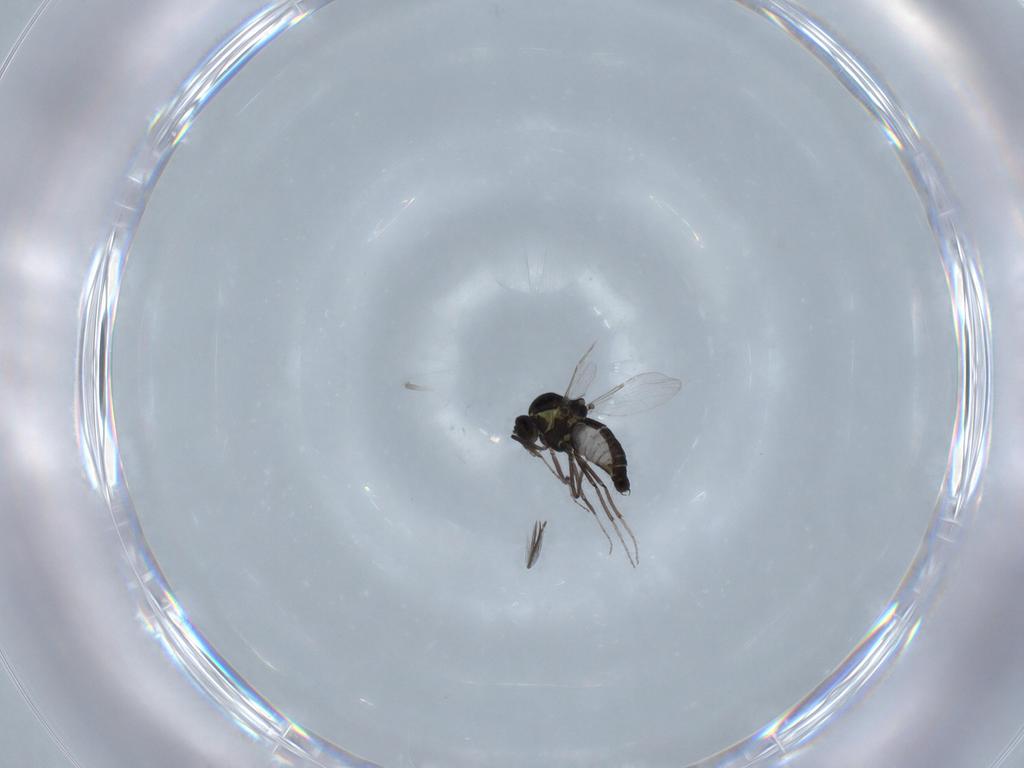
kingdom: Animalia
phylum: Arthropoda
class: Insecta
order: Diptera
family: Ceratopogonidae
